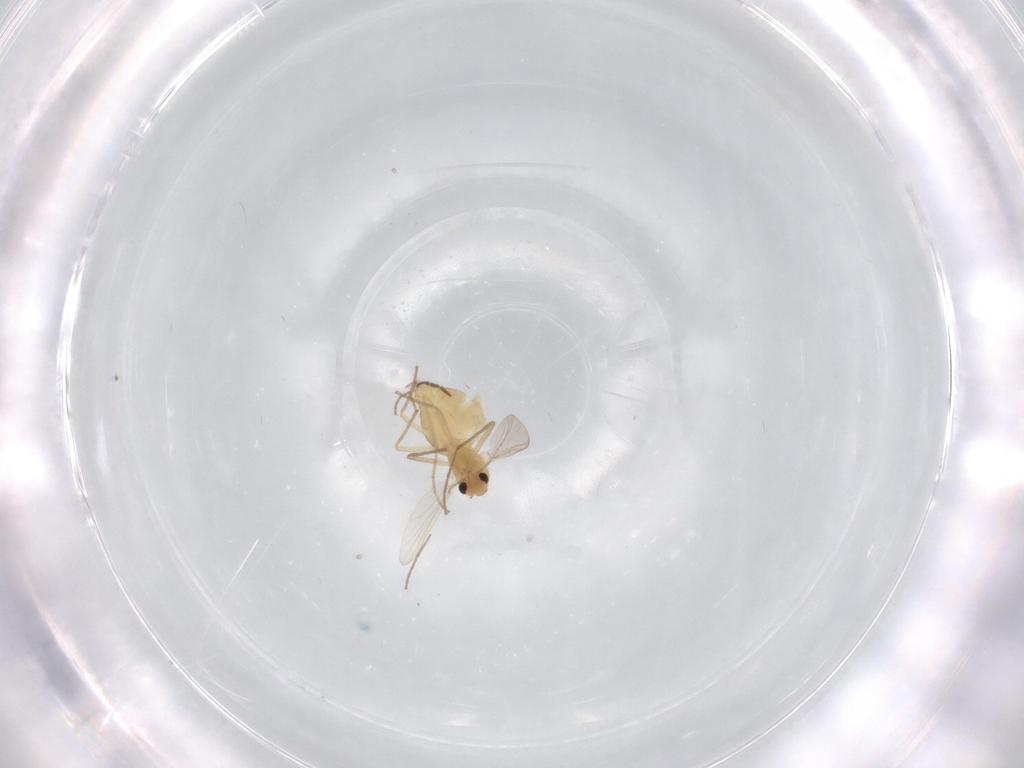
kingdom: Animalia
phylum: Arthropoda
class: Insecta
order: Diptera
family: Chironomidae
